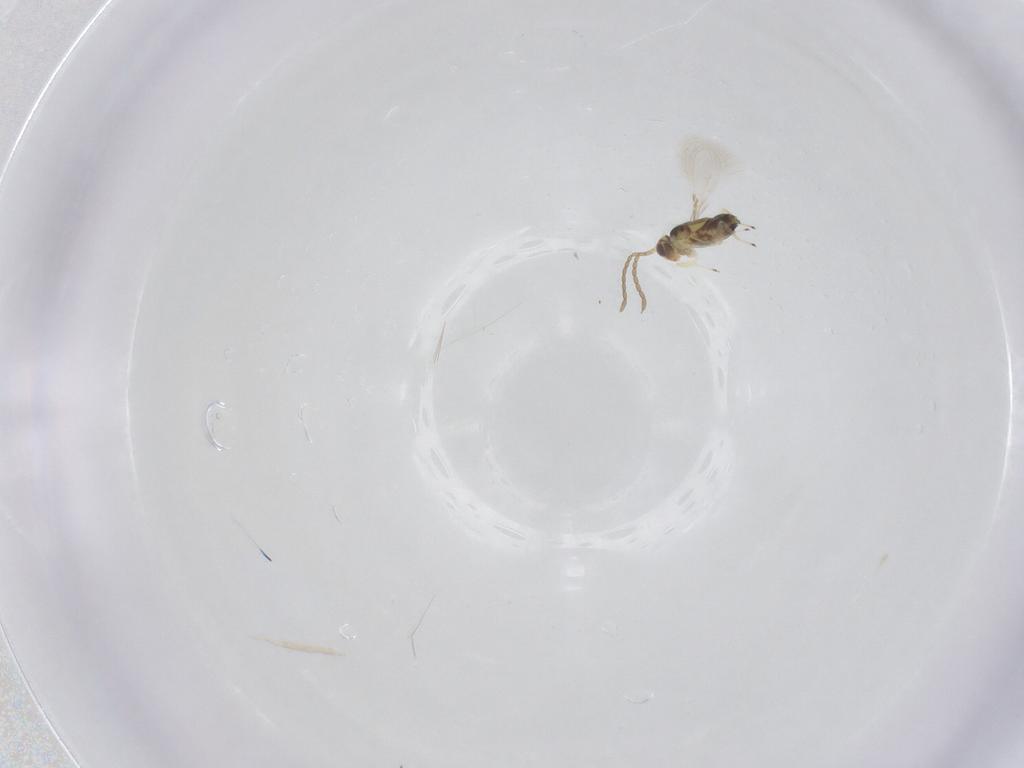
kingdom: Animalia
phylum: Arthropoda
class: Insecta
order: Hymenoptera
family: Mymaridae
